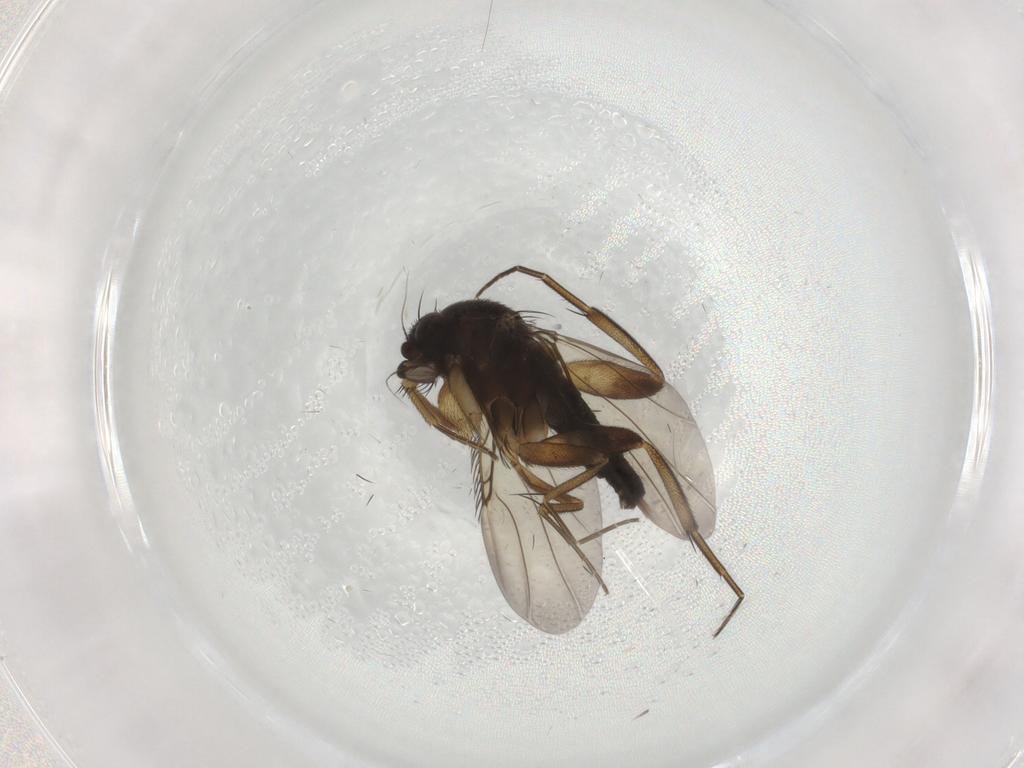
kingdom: Animalia
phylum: Arthropoda
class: Insecta
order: Diptera
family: Phoridae
